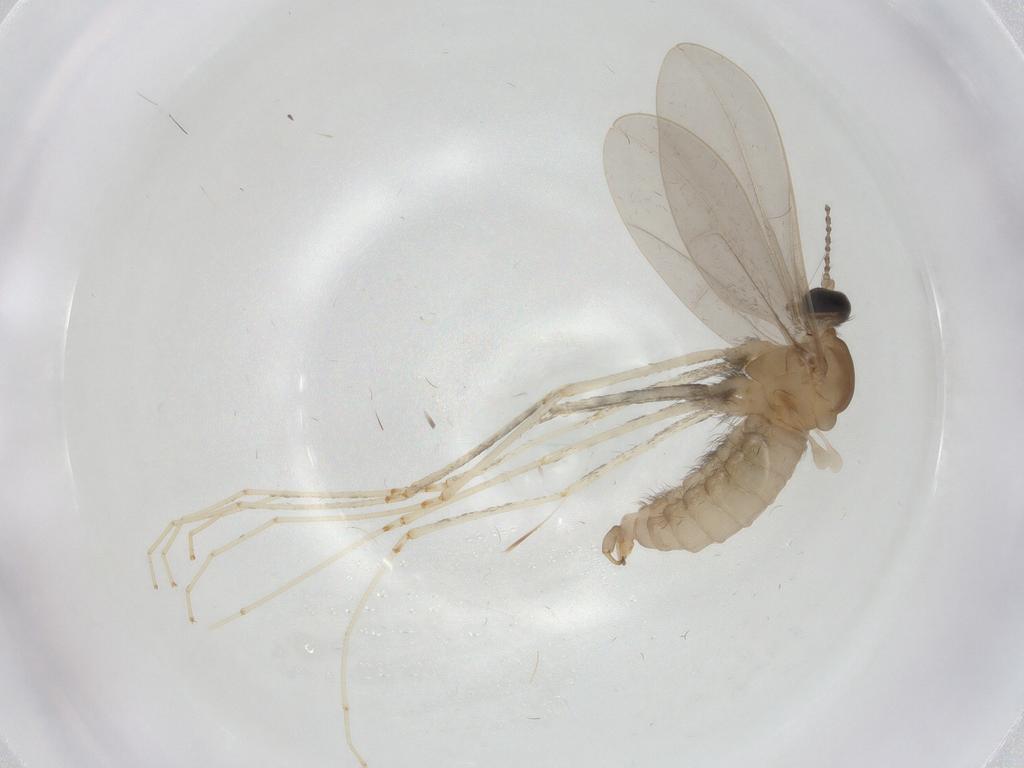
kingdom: Animalia
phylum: Arthropoda
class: Insecta
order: Diptera
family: Cecidomyiidae
